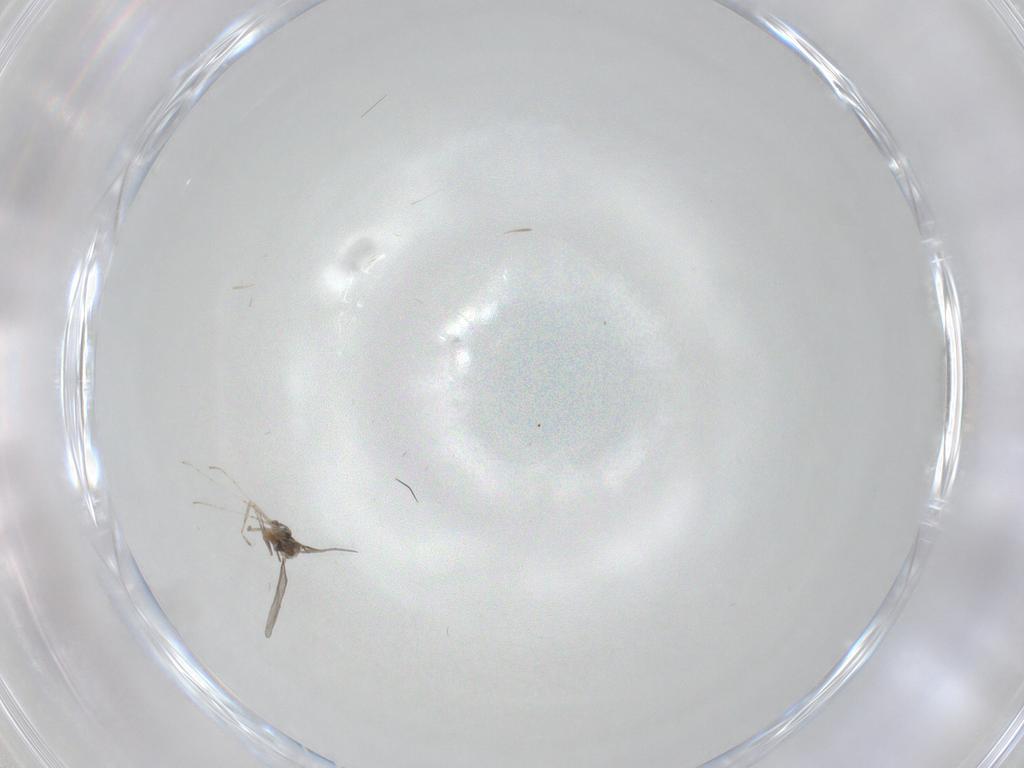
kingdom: Animalia
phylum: Arthropoda
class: Insecta
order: Diptera
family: Cecidomyiidae
